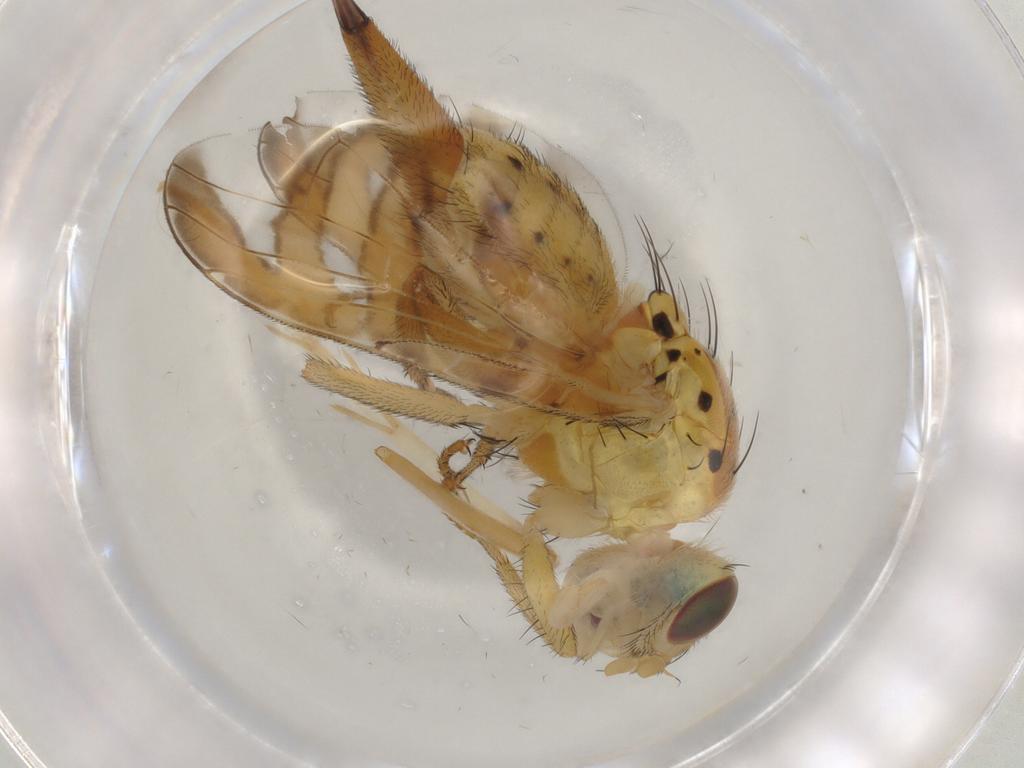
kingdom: Animalia
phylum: Arthropoda
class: Insecta
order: Diptera
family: Tephritidae
